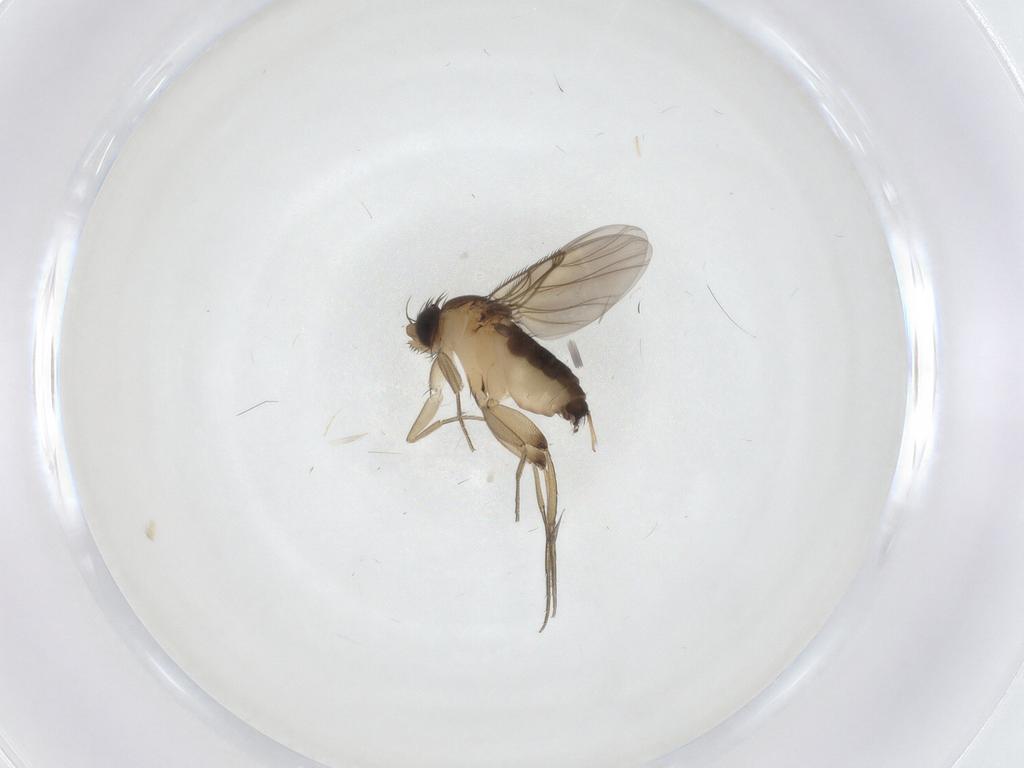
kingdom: Animalia
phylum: Arthropoda
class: Insecta
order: Diptera
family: Phoridae
